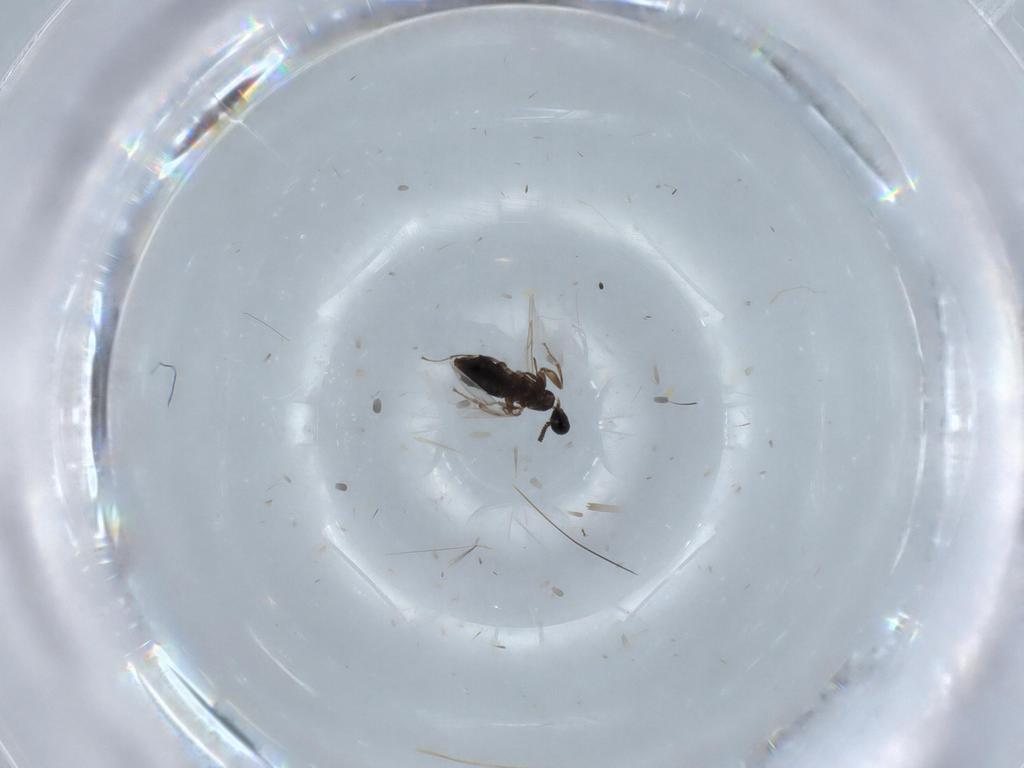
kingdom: Animalia
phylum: Arthropoda
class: Insecta
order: Diptera
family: Scatopsidae
